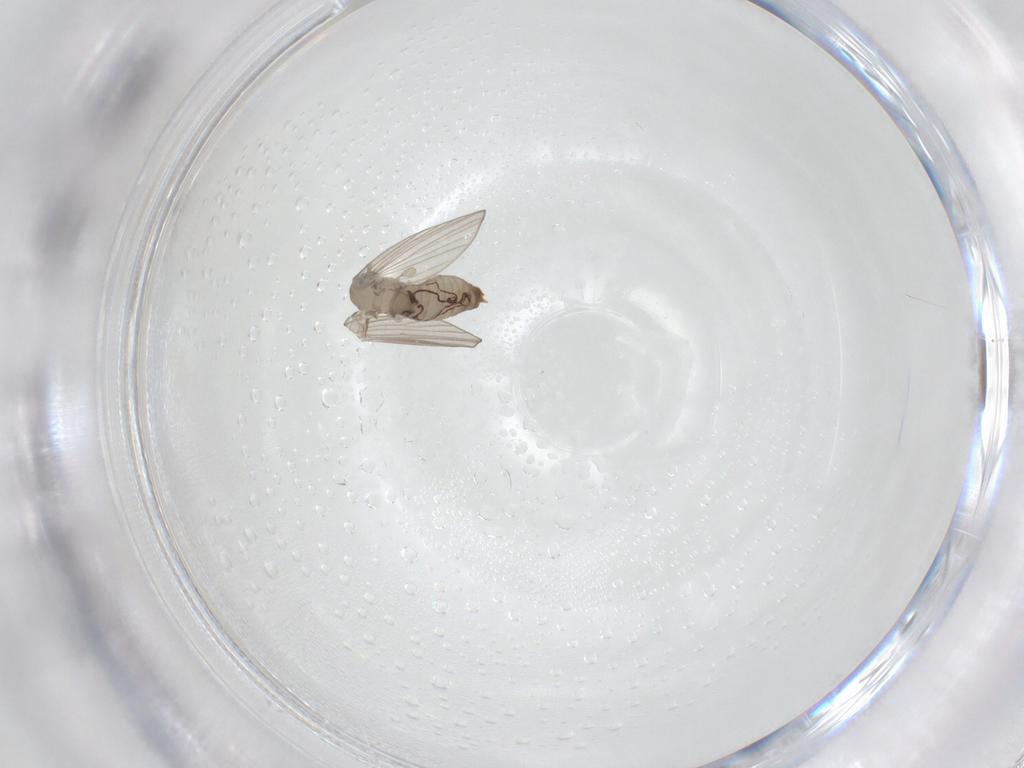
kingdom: Animalia
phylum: Arthropoda
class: Insecta
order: Diptera
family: Psychodidae
